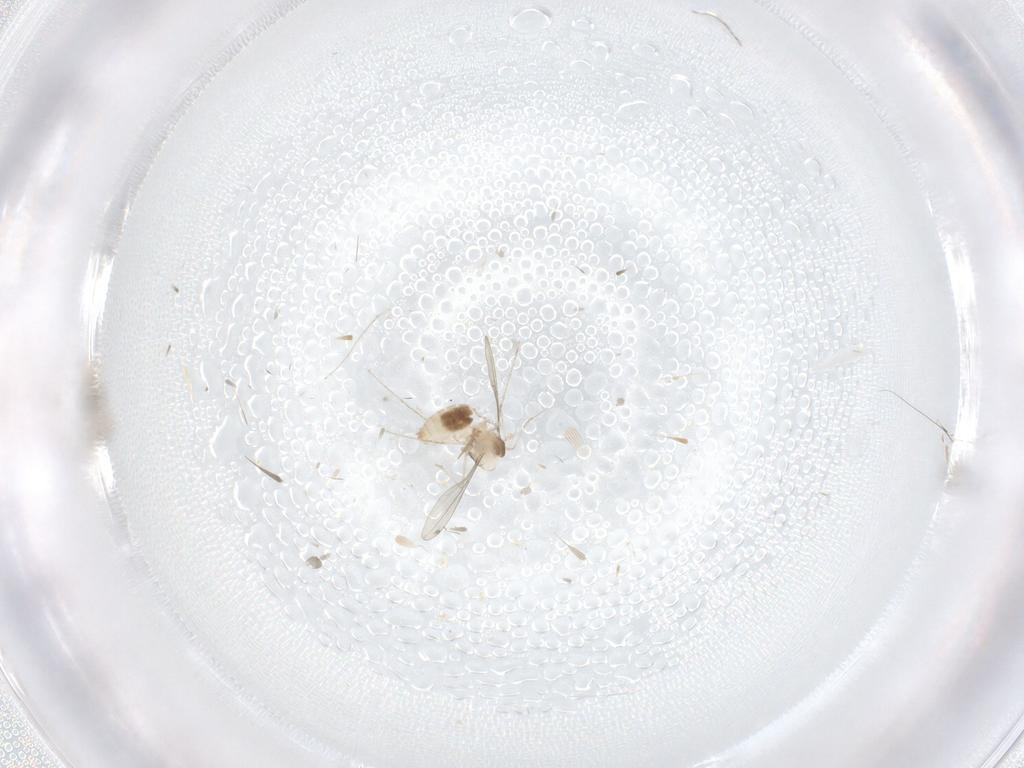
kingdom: Animalia
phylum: Arthropoda
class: Insecta
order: Diptera
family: Cecidomyiidae
